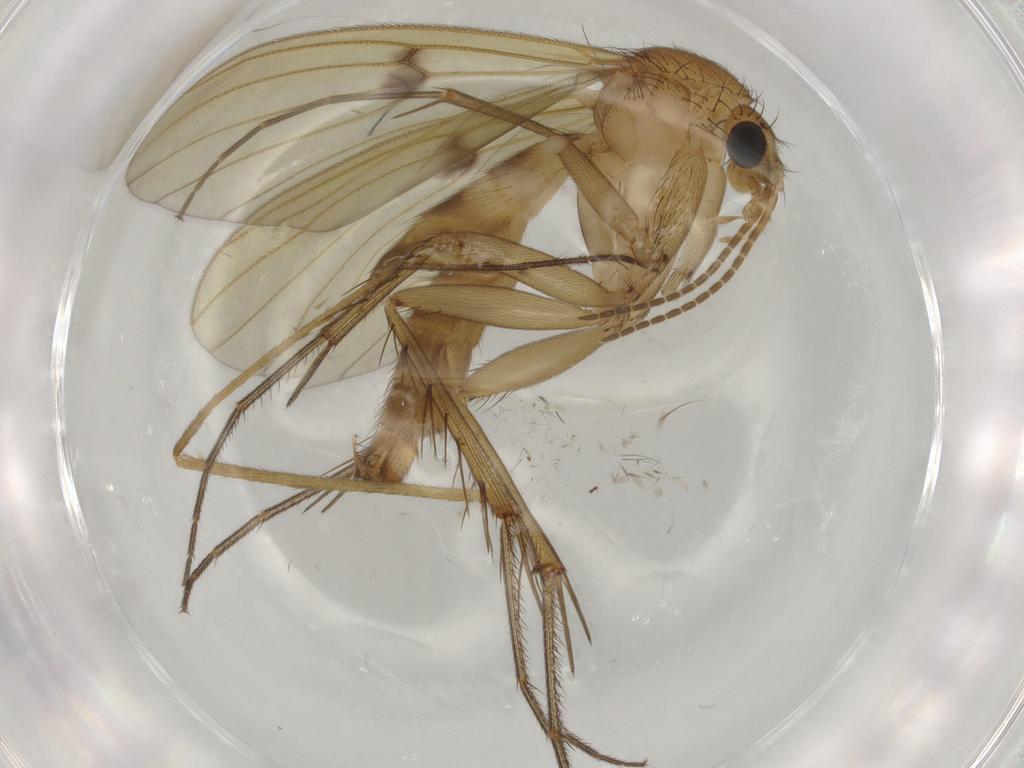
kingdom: Animalia
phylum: Arthropoda
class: Insecta
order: Diptera
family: Mycetophilidae
